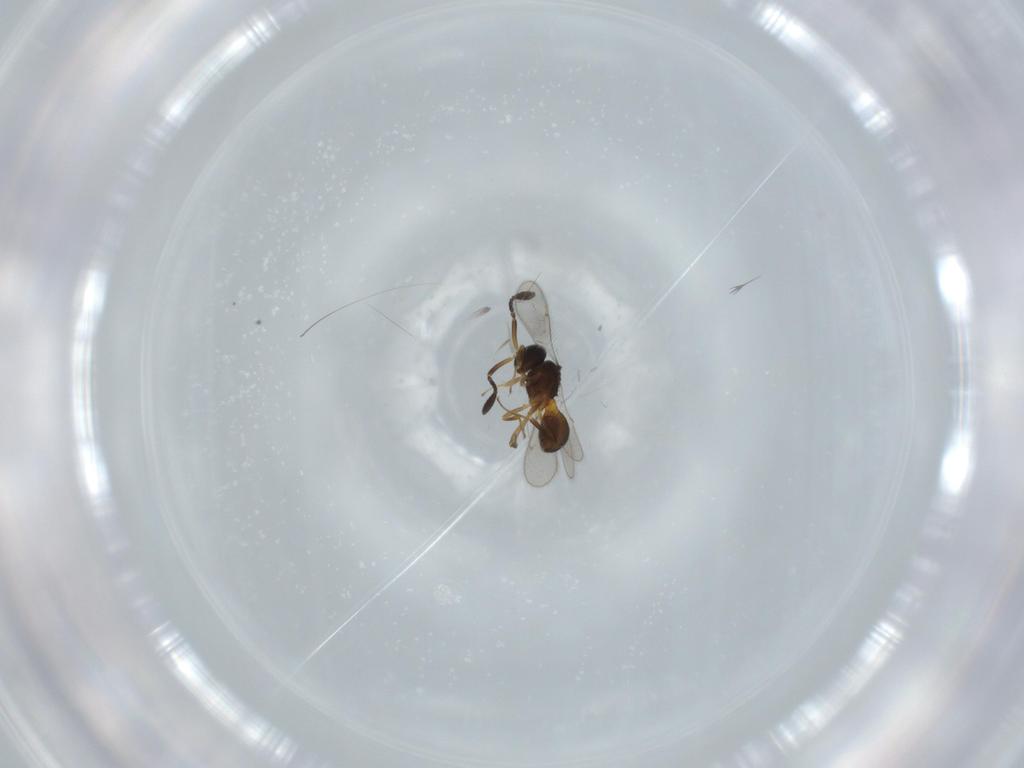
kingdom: Animalia
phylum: Arthropoda
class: Insecta
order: Hymenoptera
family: Scelionidae
